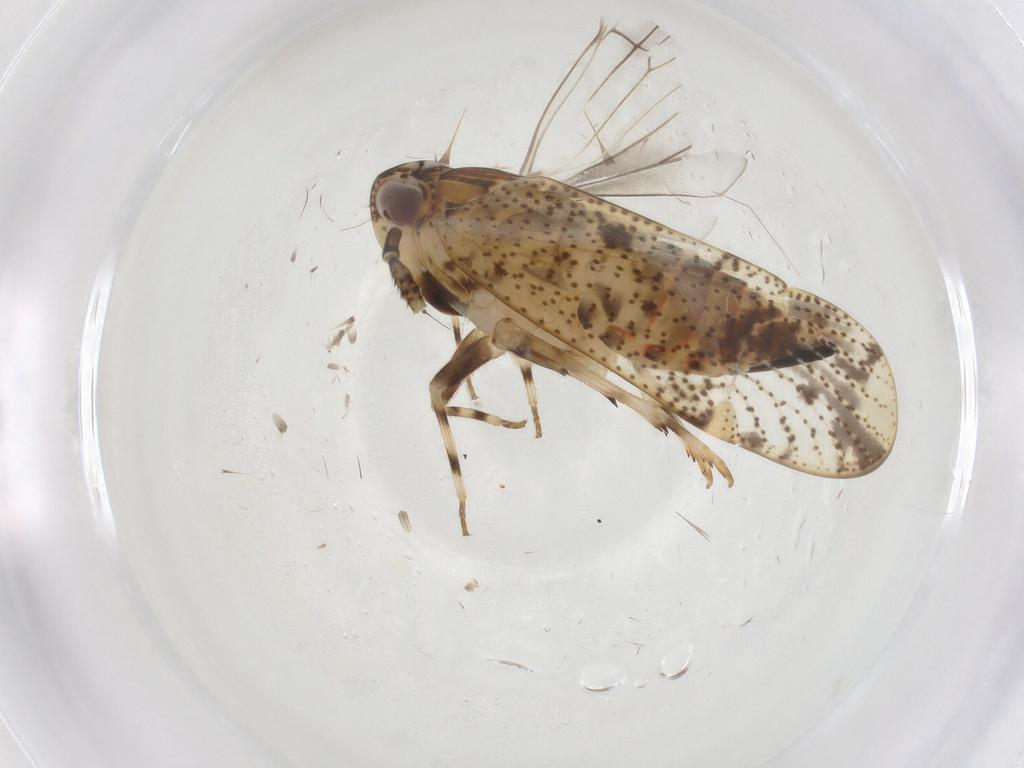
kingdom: Animalia
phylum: Arthropoda
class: Insecta
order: Hemiptera
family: Delphacidae
